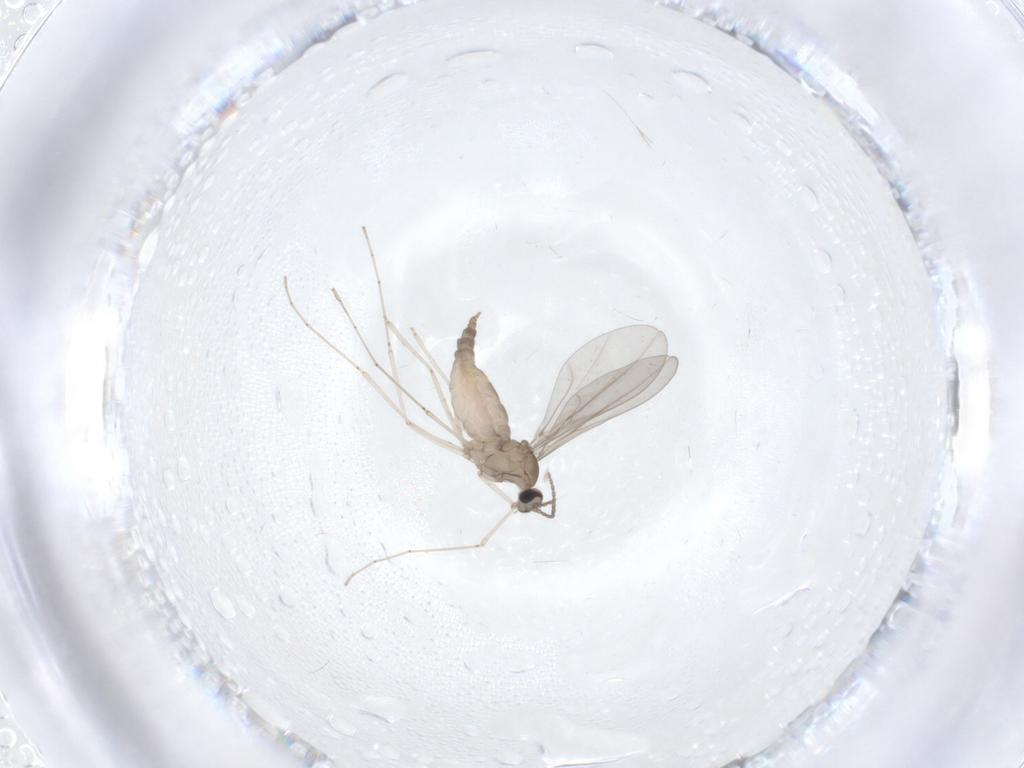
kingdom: Animalia
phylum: Arthropoda
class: Insecta
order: Diptera
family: Cecidomyiidae
